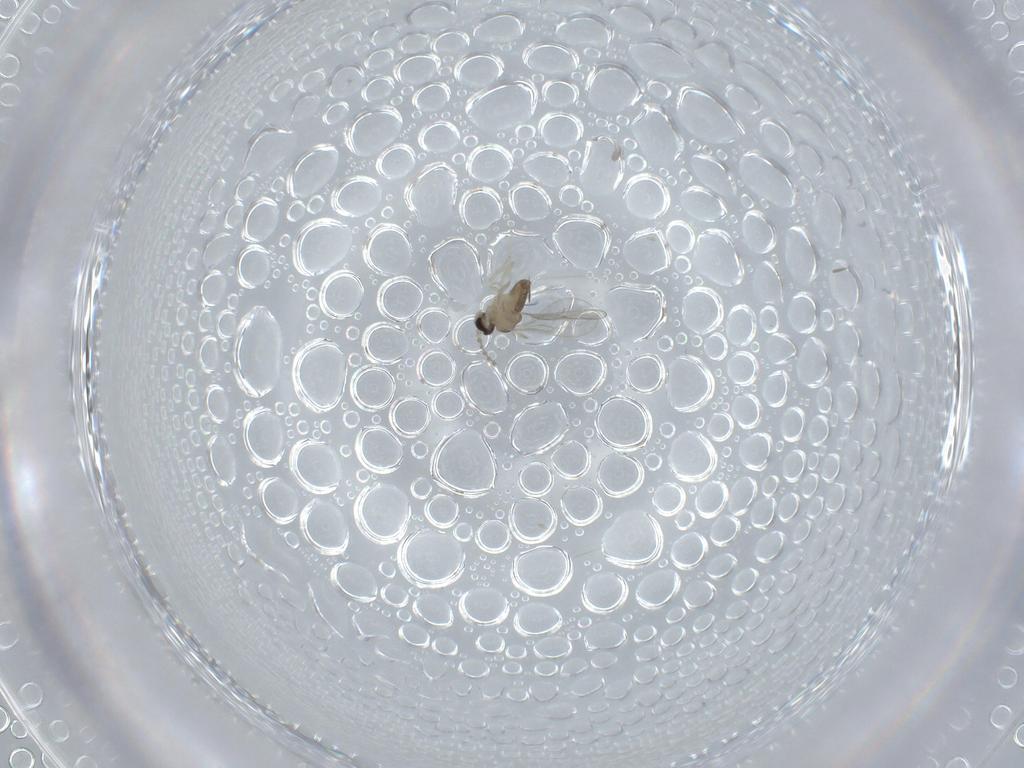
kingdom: Animalia
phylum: Arthropoda
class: Insecta
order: Diptera
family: Cecidomyiidae
